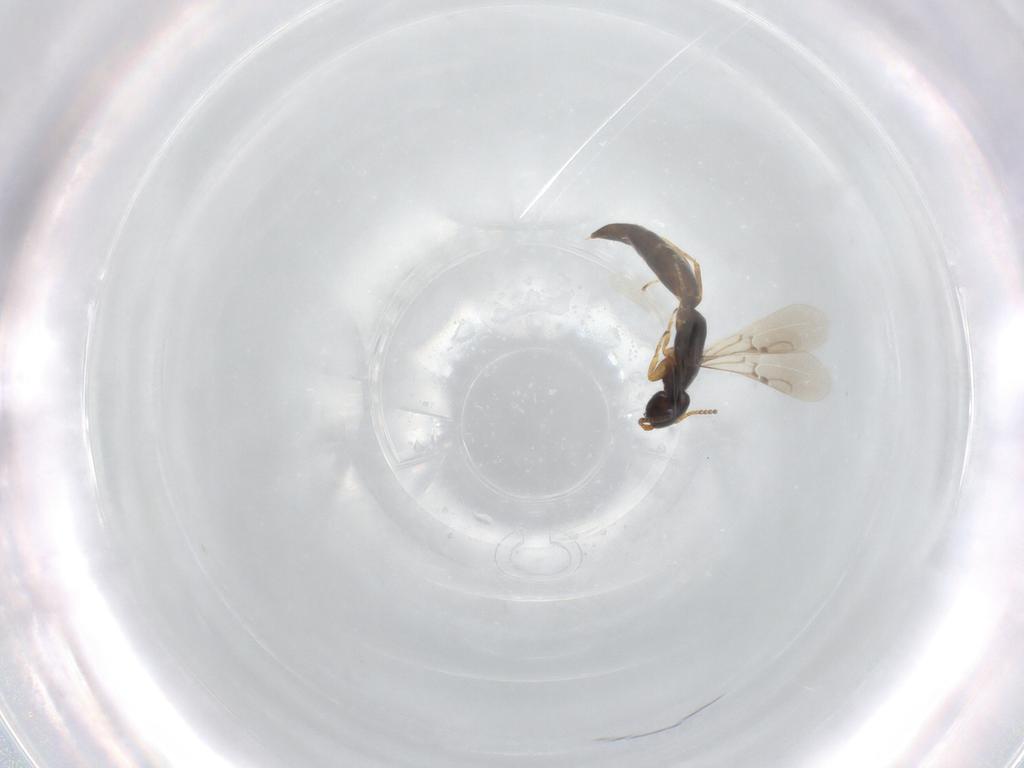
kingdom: Animalia
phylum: Arthropoda
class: Insecta
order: Hymenoptera
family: Bethylidae
